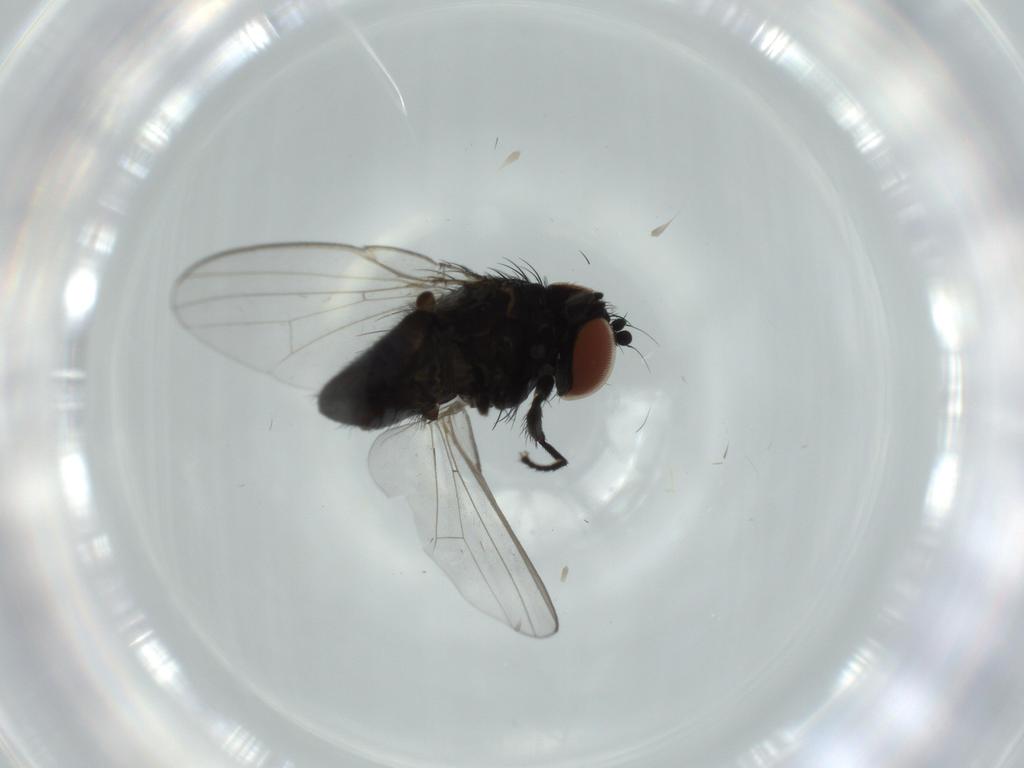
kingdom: Animalia
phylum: Arthropoda
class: Insecta
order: Diptera
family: Milichiidae
